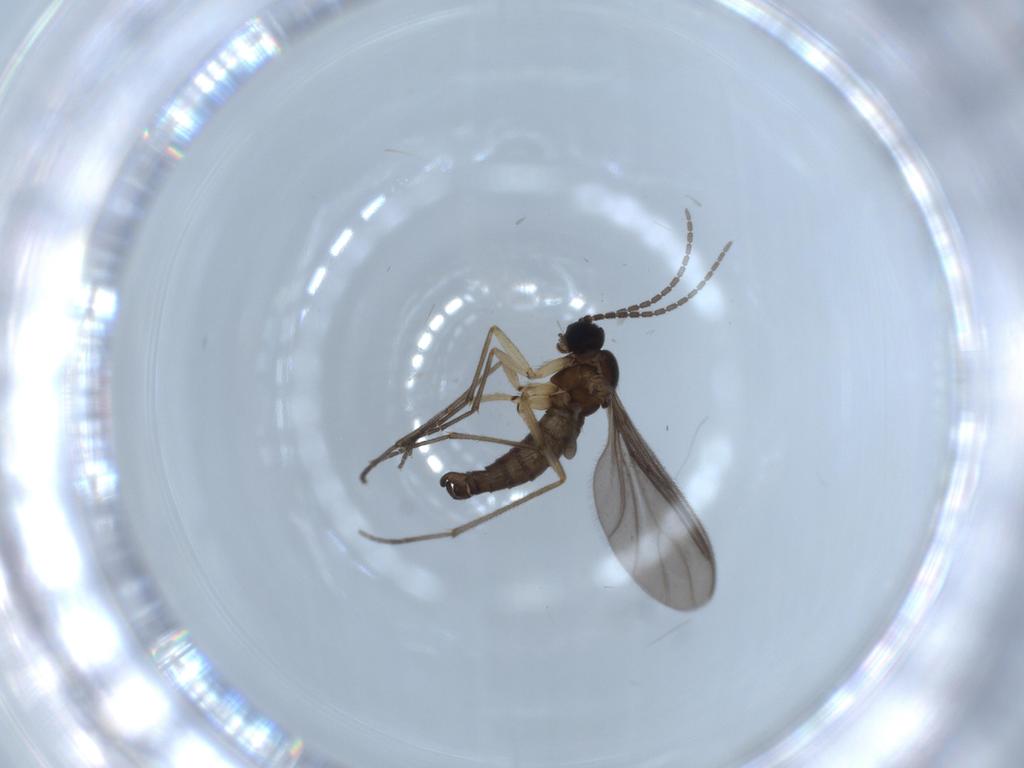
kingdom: Animalia
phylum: Arthropoda
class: Insecta
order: Diptera
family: Sciaridae
